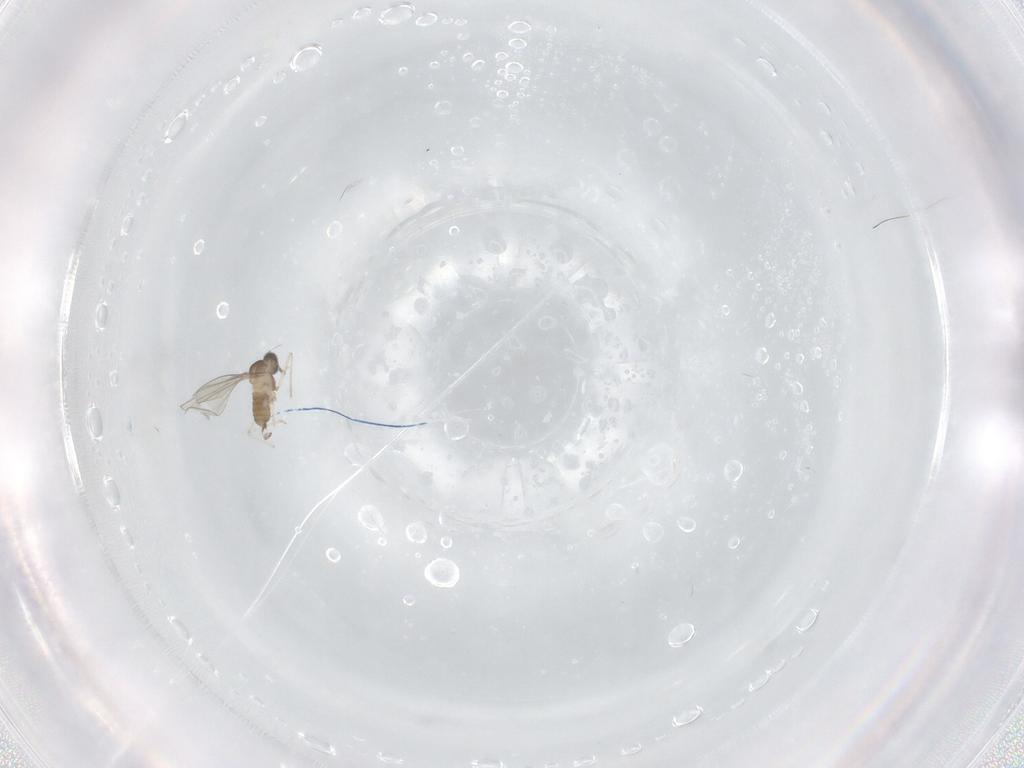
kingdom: Animalia
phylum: Arthropoda
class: Insecta
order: Diptera
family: Cecidomyiidae
